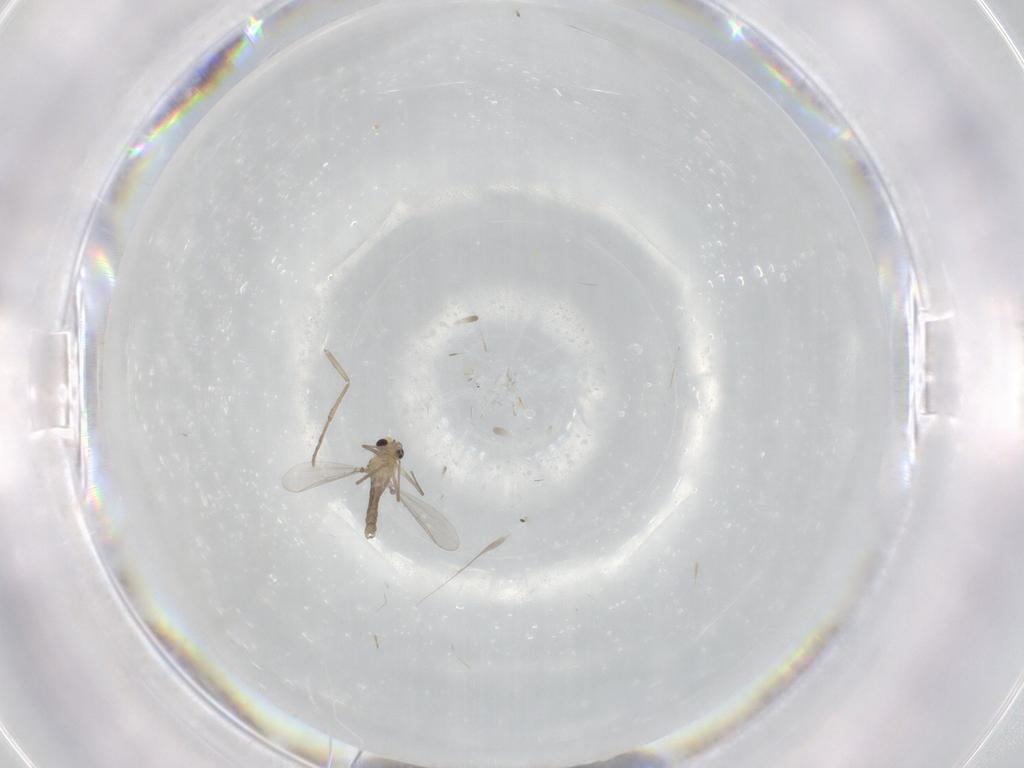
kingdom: Animalia
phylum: Arthropoda
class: Insecta
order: Diptera
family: Chironomidae
